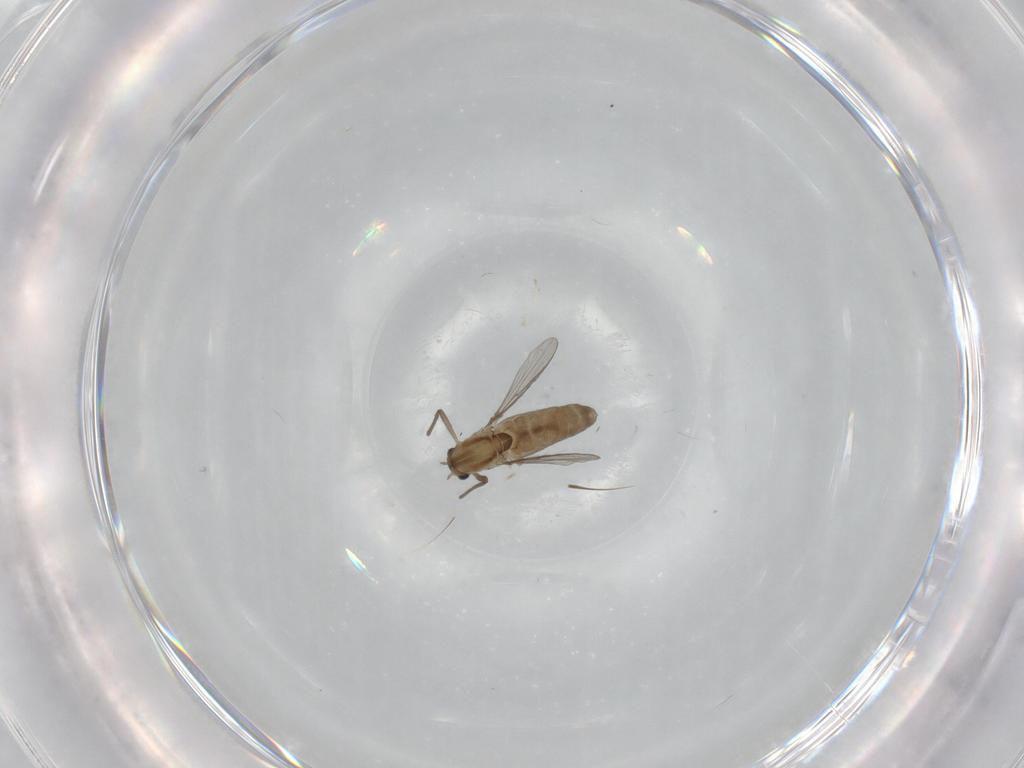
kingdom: Animalia
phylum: Arthropoda
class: Insecta
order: Diptera
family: Chironomidae
